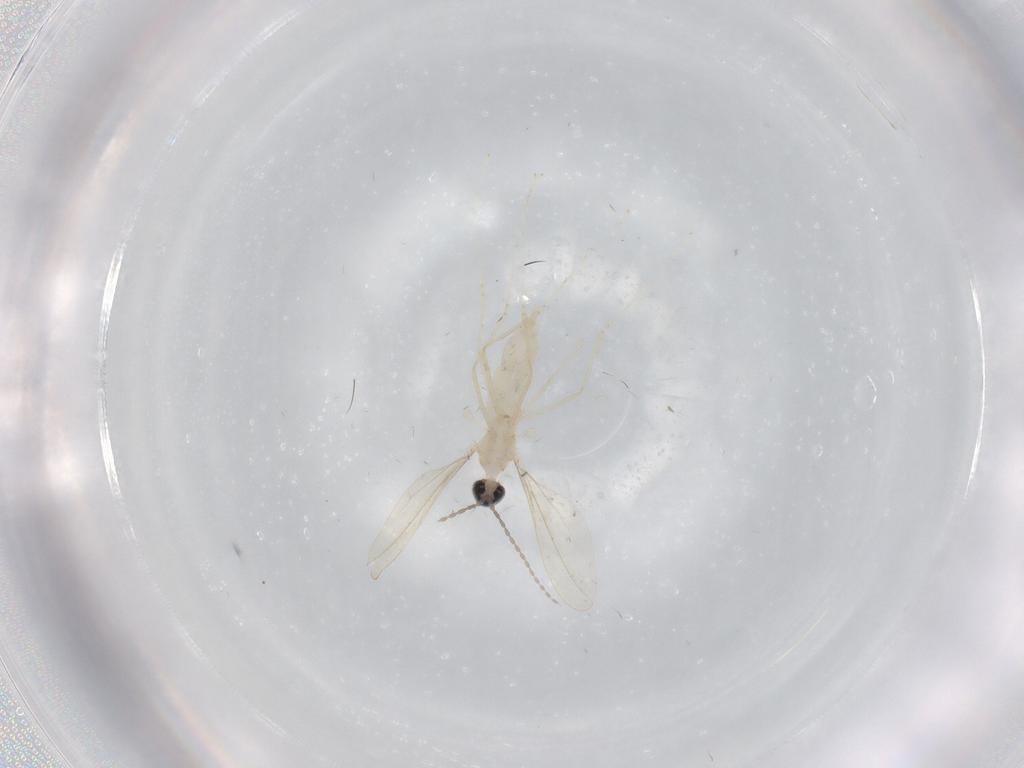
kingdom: Animalia
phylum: Arthropoda
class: Insecta
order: Diptera
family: Cecidomyiidae
